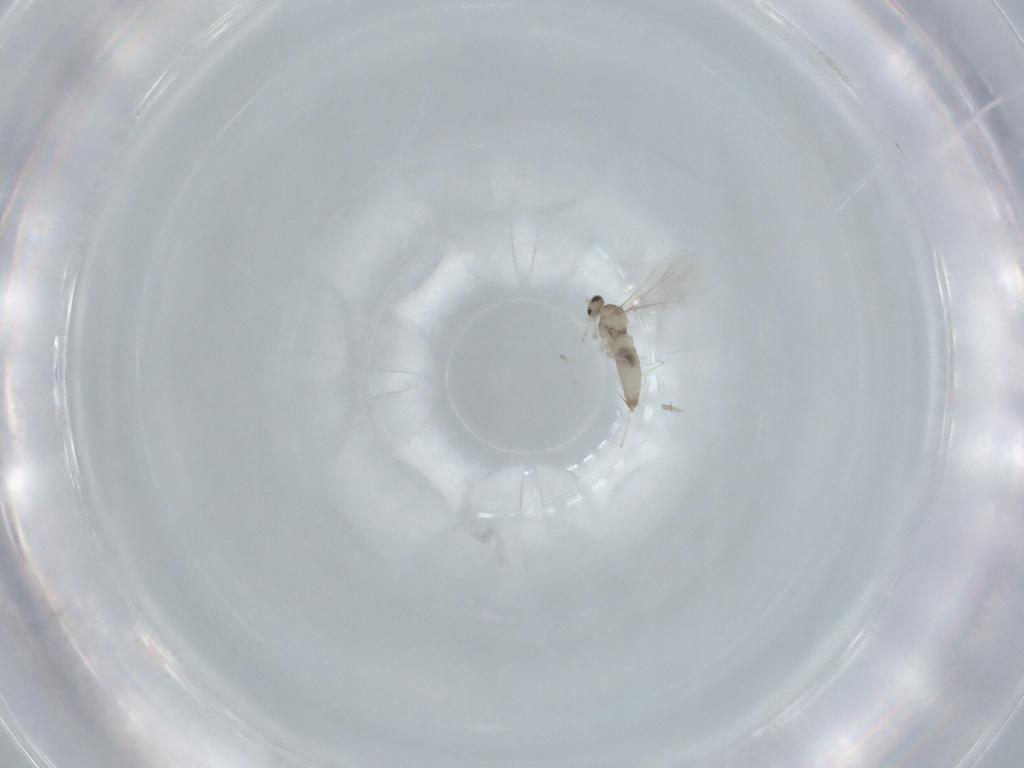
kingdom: Animalia
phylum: Arthropoda
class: Insecta
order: Diptera
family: Cecidomyiidae
